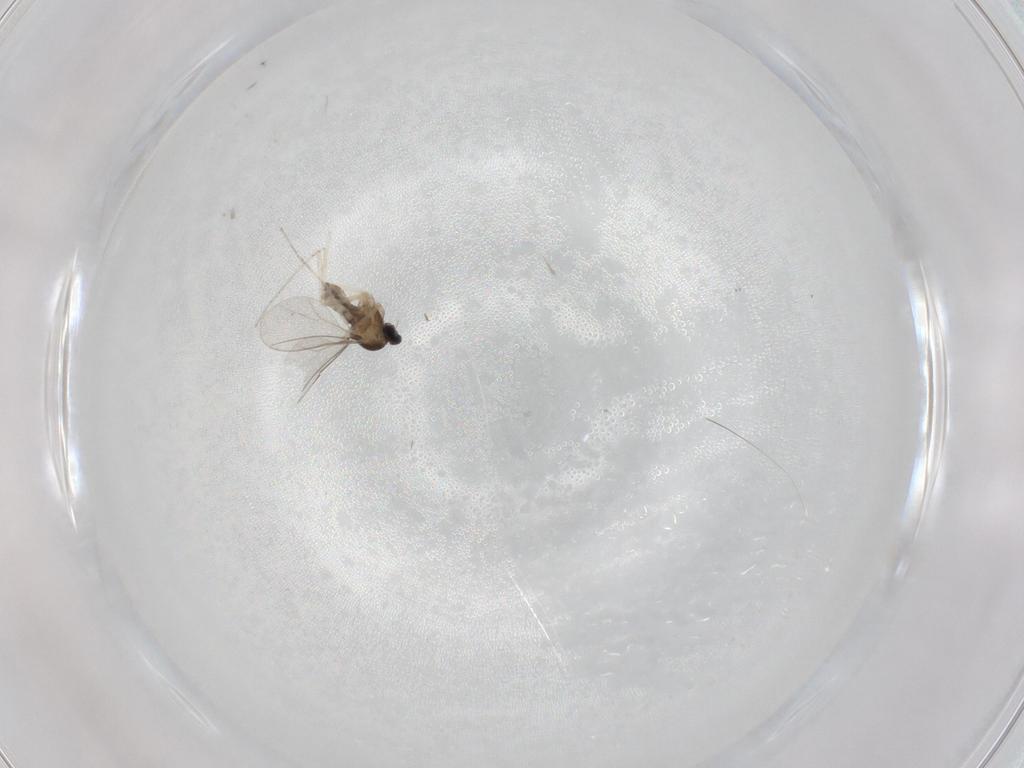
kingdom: Animalia
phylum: Arthropoda
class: Insecta
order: Diptera
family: Cecidomyiidae
